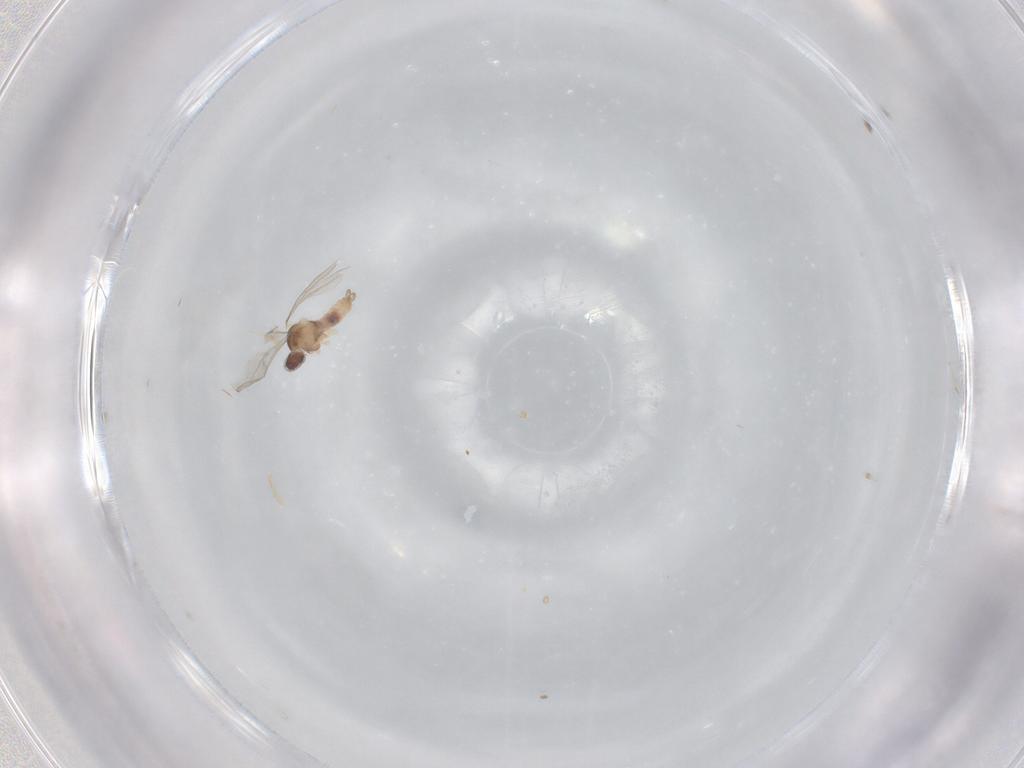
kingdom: Animalia
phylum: Arthropoda
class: Insecta
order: Diptera
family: Cecidomyiidae
